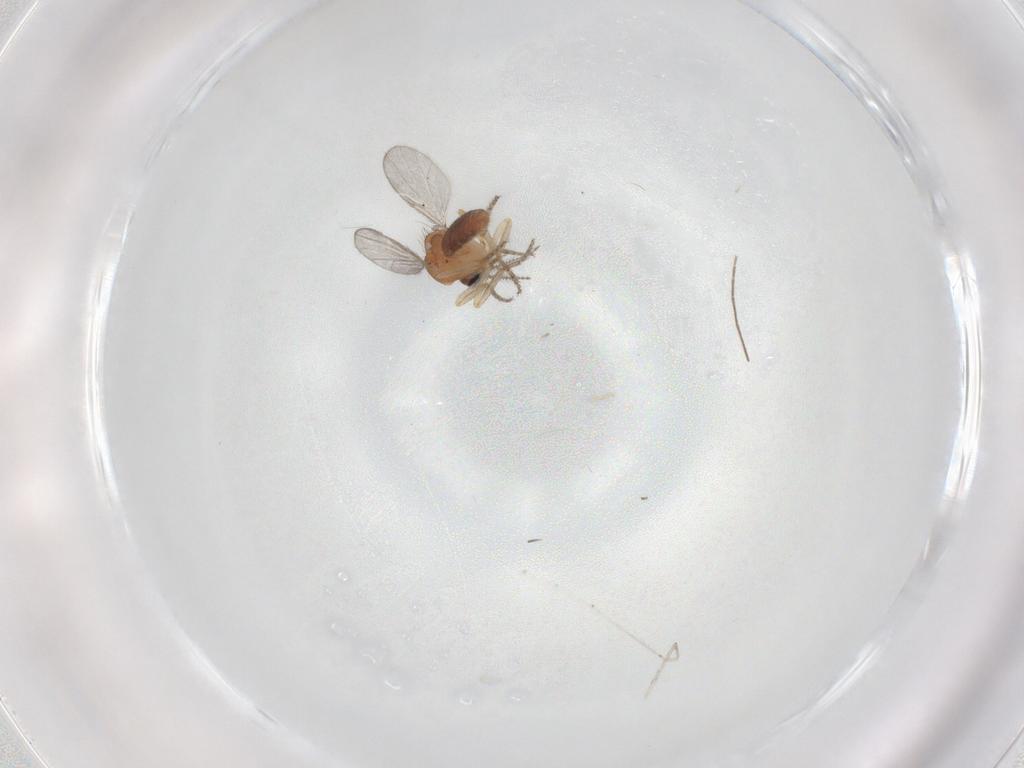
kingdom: Animalia
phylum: Arthropoda
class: Insecta
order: Diptera
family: Ceratopogonidae
